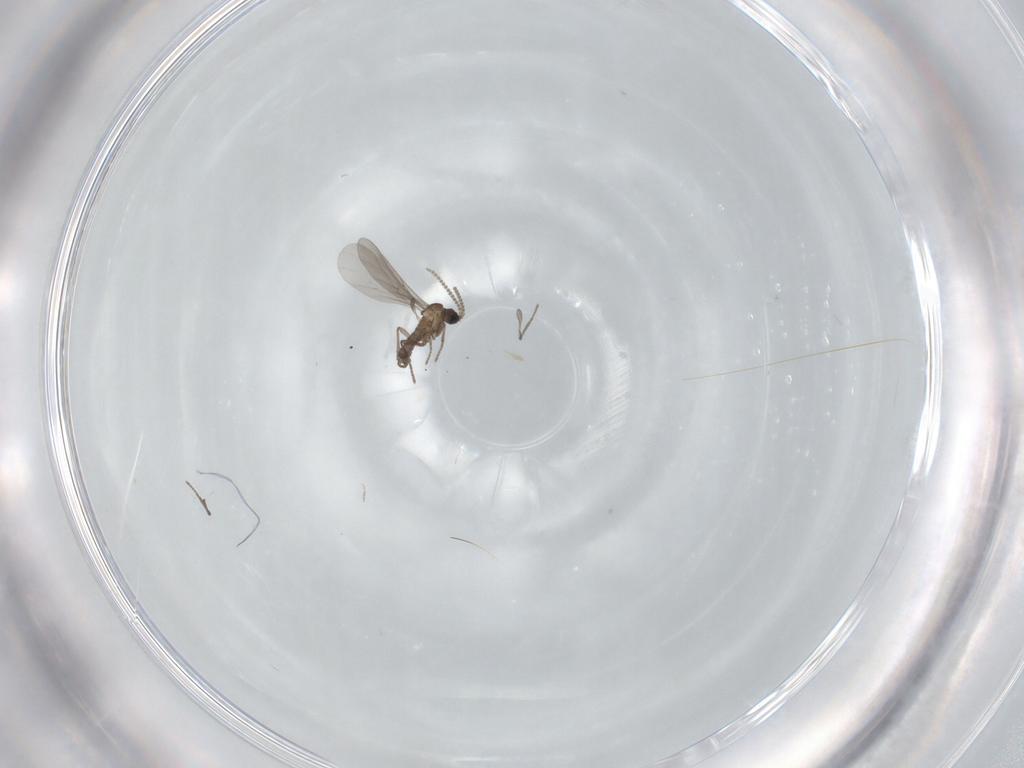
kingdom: Animalia
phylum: Arthropoda
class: Insecta
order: Diptera
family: Sciaridae
